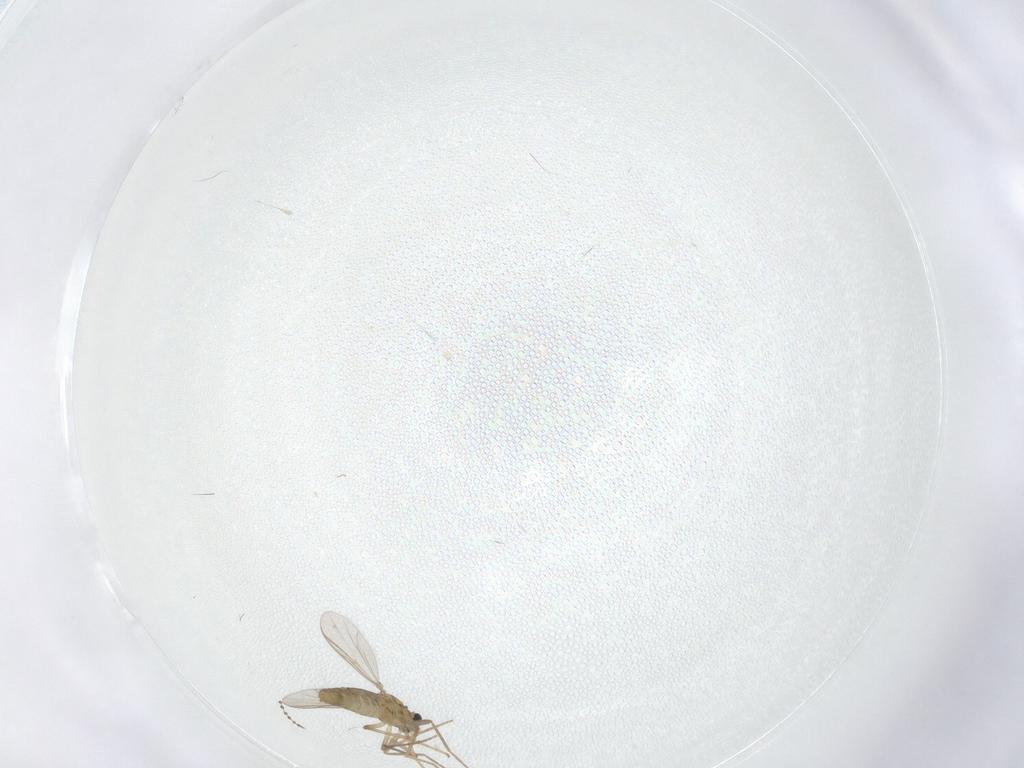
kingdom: Animalia
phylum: Arthropoda
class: Insecta
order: Diptera
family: Chironomidae
